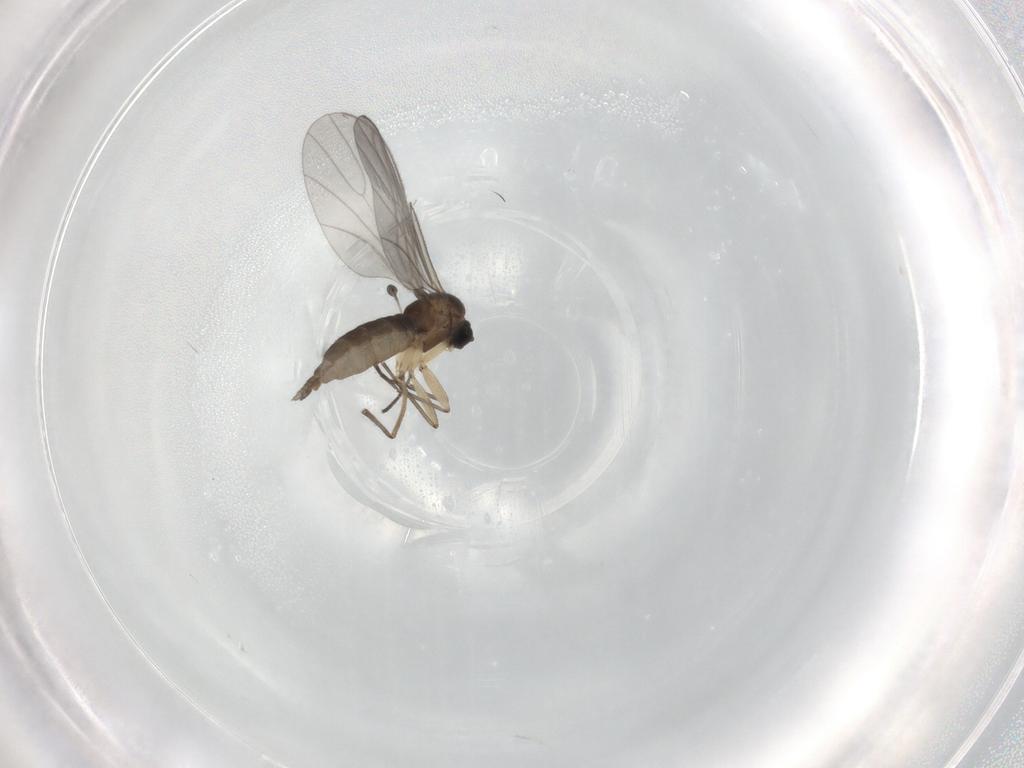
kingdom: Animalia
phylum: Arthropoda
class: Insecta
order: Diptera
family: Sciaridae
